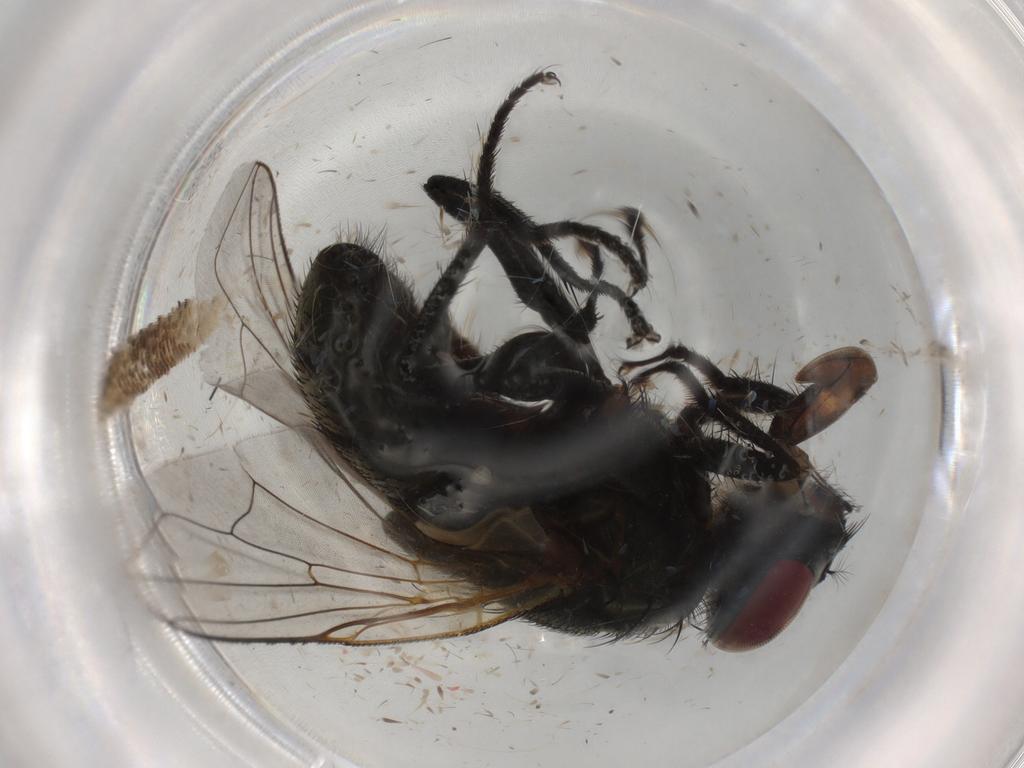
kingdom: Animalia
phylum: Arthropoda
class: Insecta
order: Diptera
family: Muscidae
